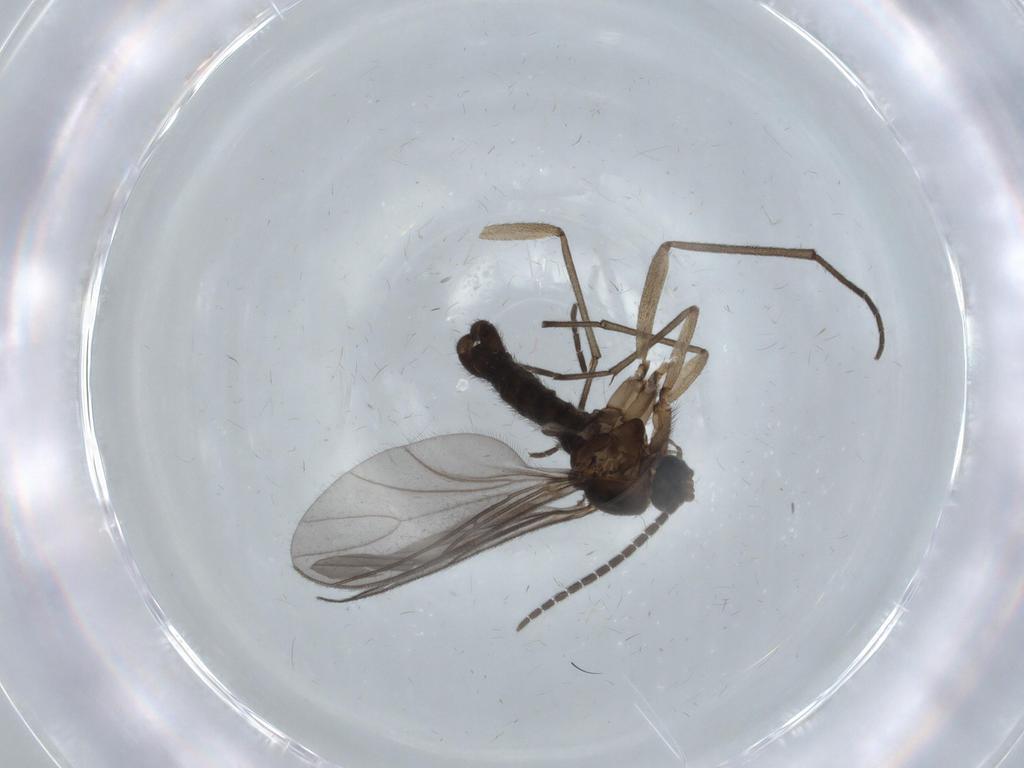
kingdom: Animalia
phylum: Arthropoda
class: Insecta
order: Diptera
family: Sciaridae
